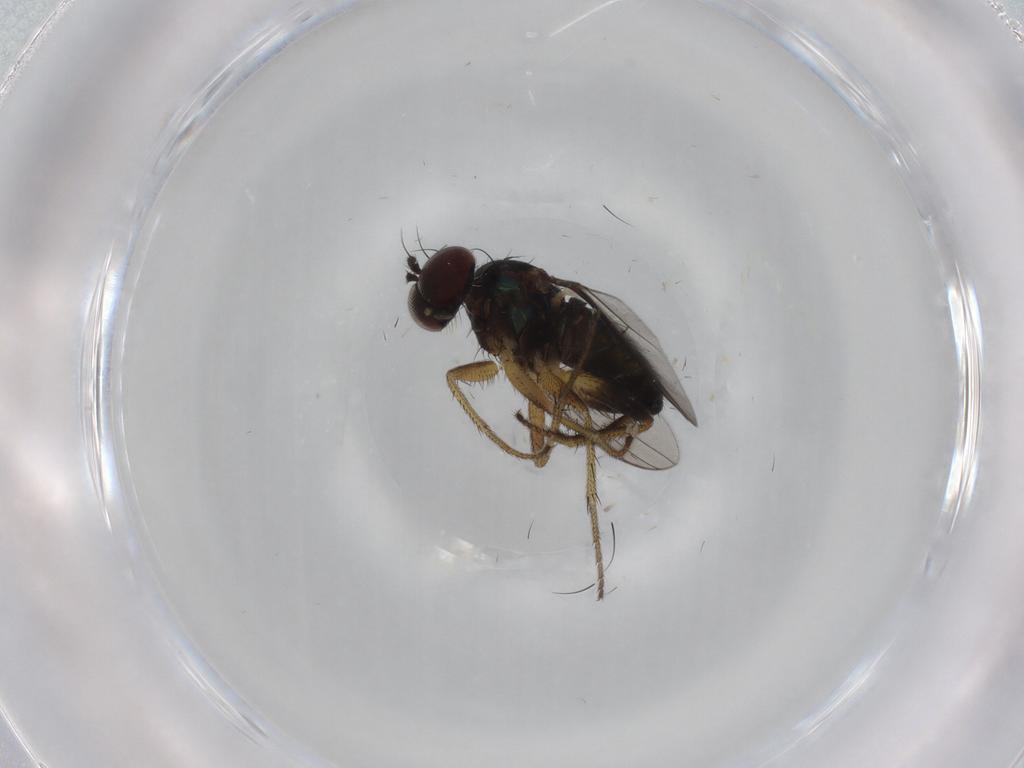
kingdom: Animalia
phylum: Arthropoda
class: Insecta
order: Diptera
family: Dolichopodidae
